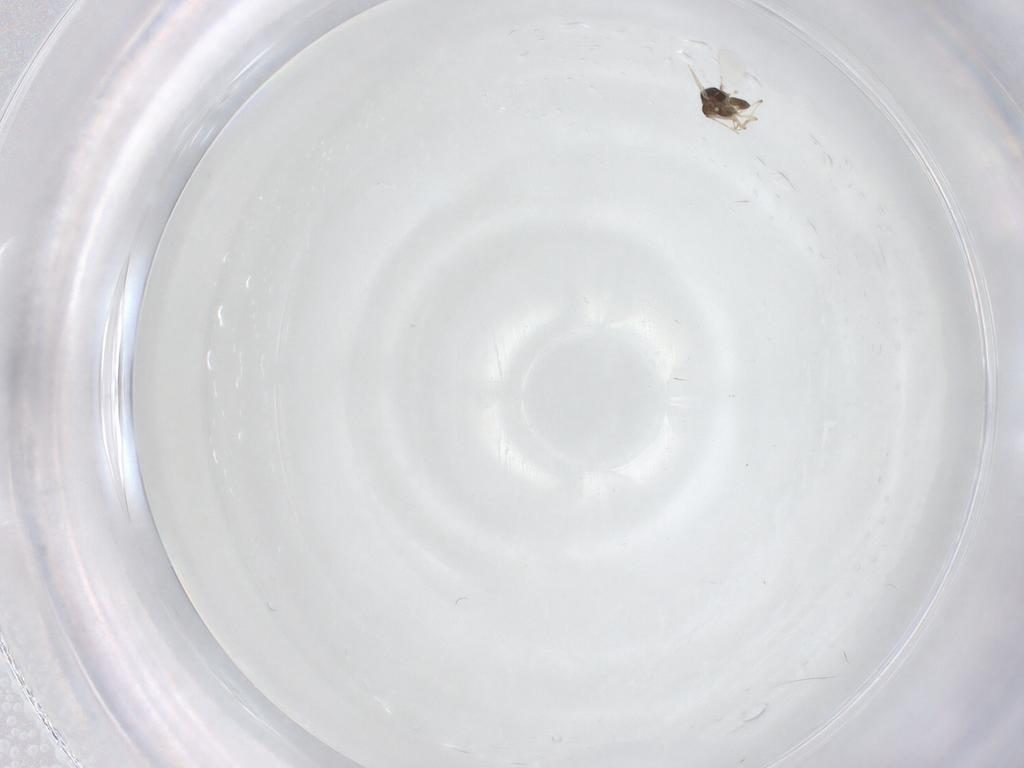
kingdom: Animalia
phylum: Arthropoda
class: Insecta
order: Diptera
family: Chironomidae
